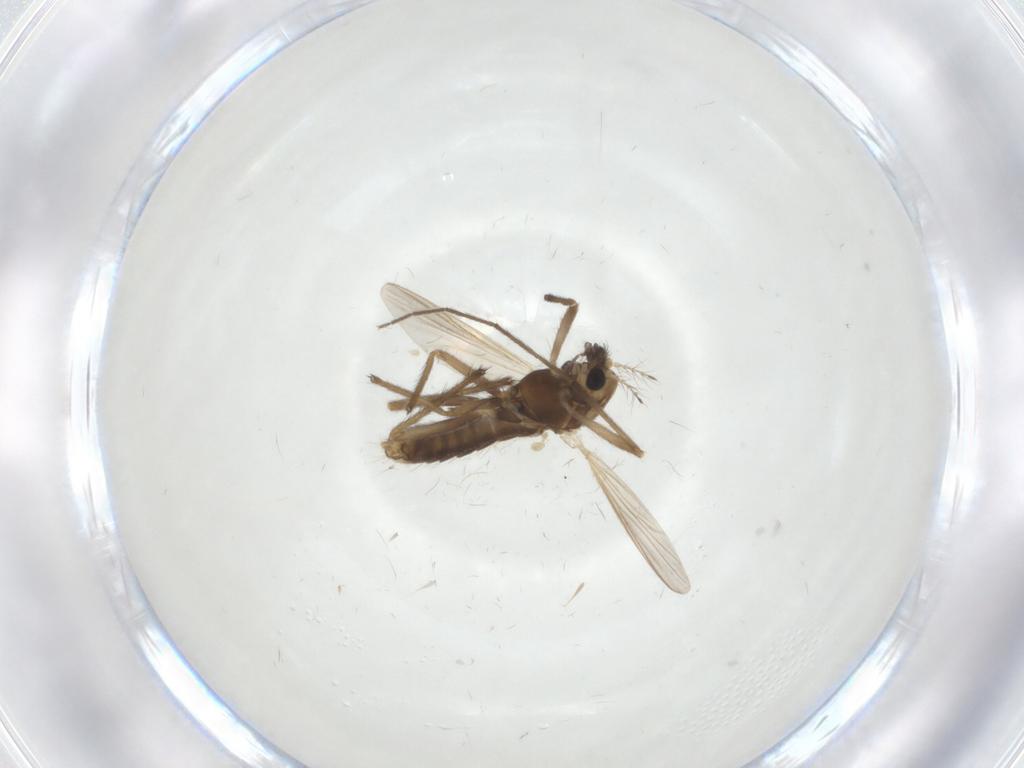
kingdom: Animalia
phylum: Arthropoda
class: Insecta
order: Diptera
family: Chironomidae
